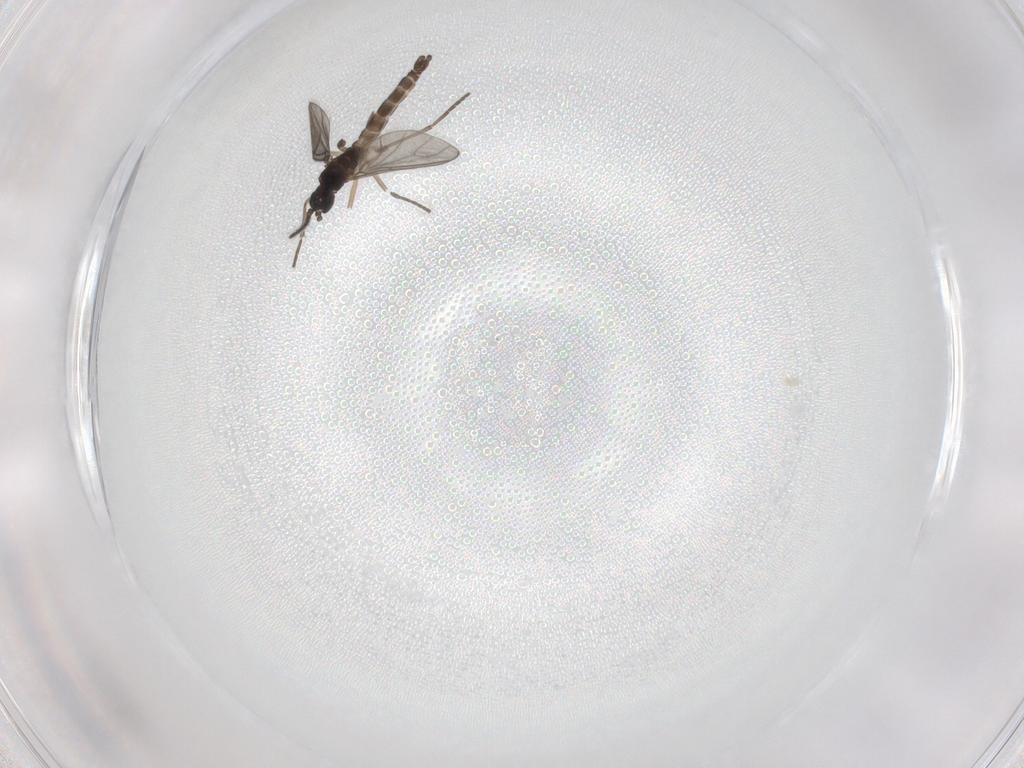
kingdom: Animalia
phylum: Arthropoda
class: Insecta
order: Diptera
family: Sciaridae
